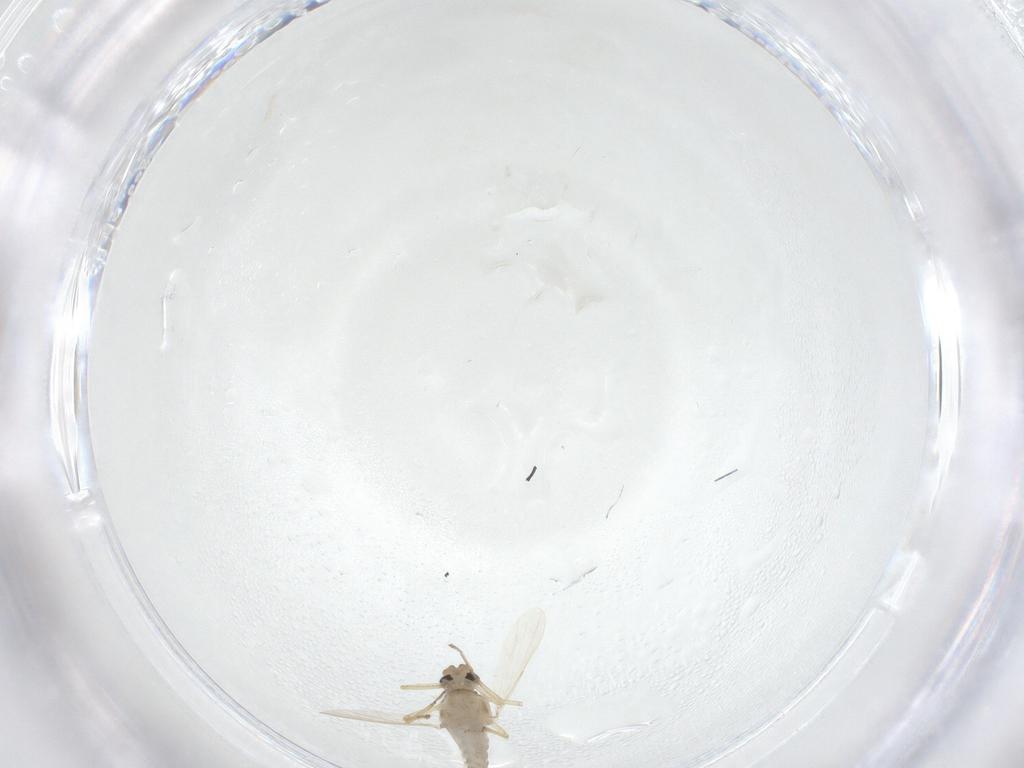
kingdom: Animalia
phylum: Arthropoda
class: Insecta
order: Diptera
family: Ceratopogonidae
